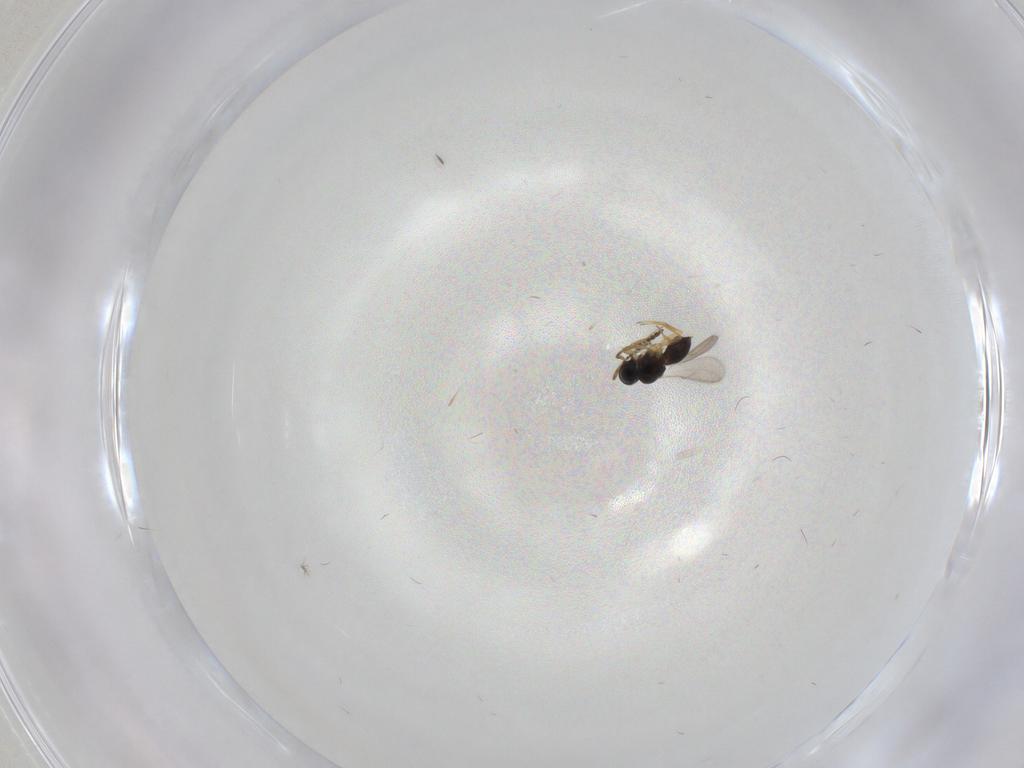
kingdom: Animalia
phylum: Arthropoda
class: Insecta
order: Hymenoptera
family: Scelionidae
